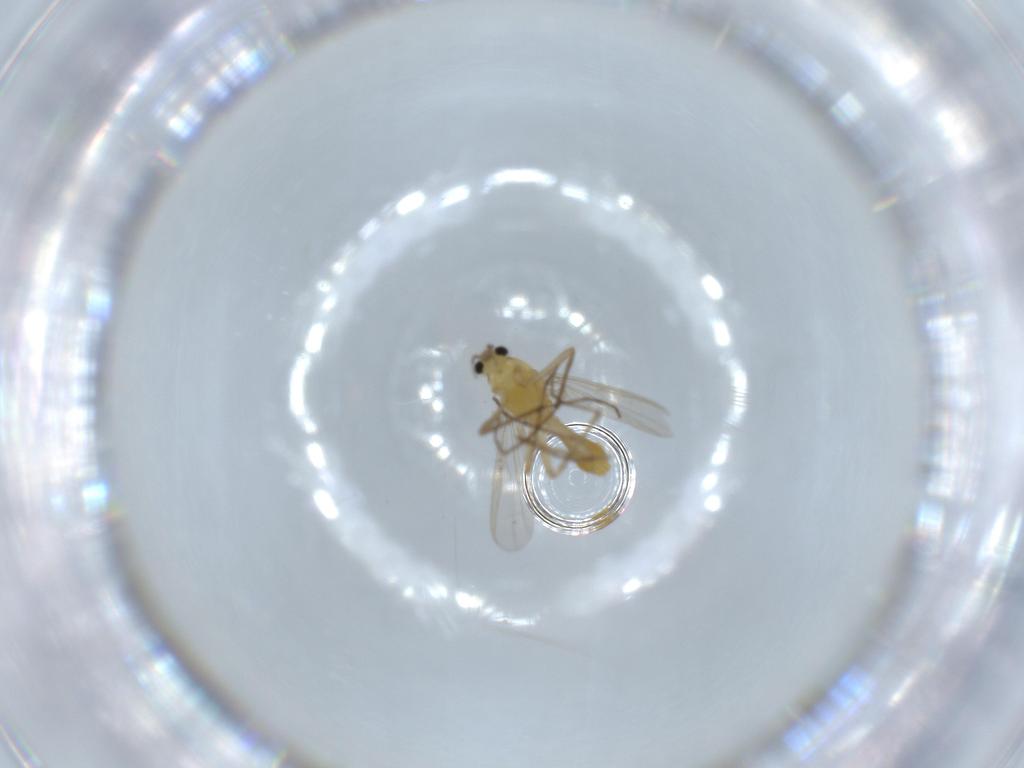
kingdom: Animalia
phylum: Arthropoda
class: Insecta
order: Diptera
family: Chironomidae
